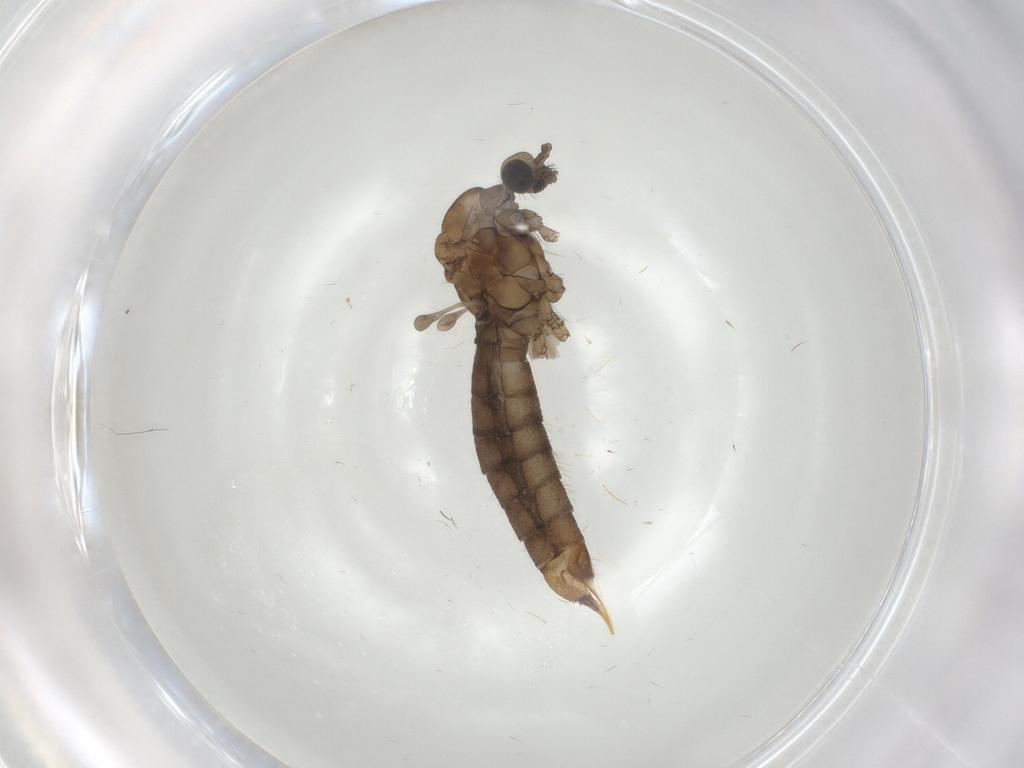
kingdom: Animalia
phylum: Arthropoda
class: Insecta
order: Diptera
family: Limoniidae
